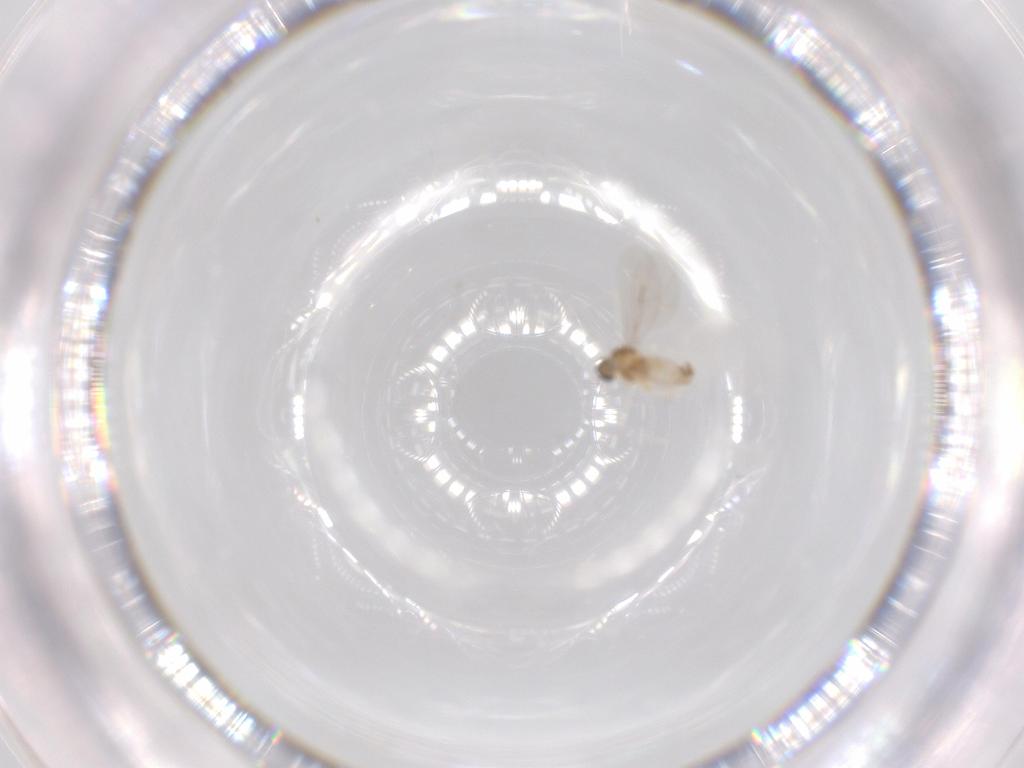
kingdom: Animalia
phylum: Arthropoda
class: Insecta
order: Diptera
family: Cecidomyiidae
